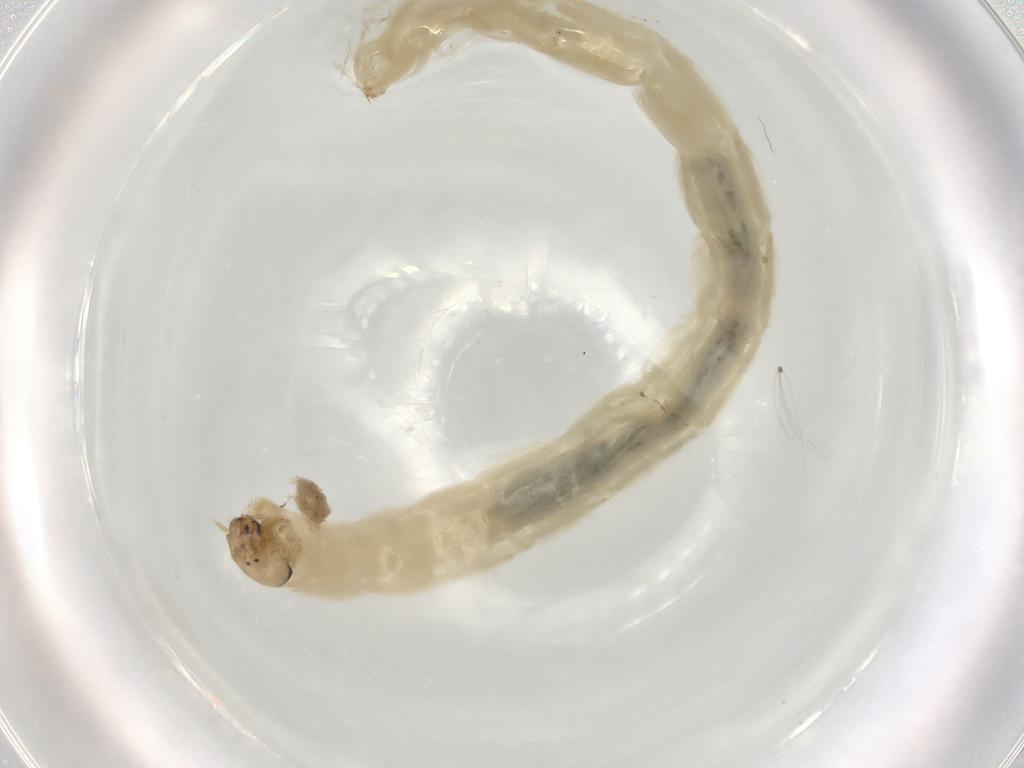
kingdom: Animalia
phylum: Arthropoda
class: Insecta
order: Diptera
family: Chironomidae
